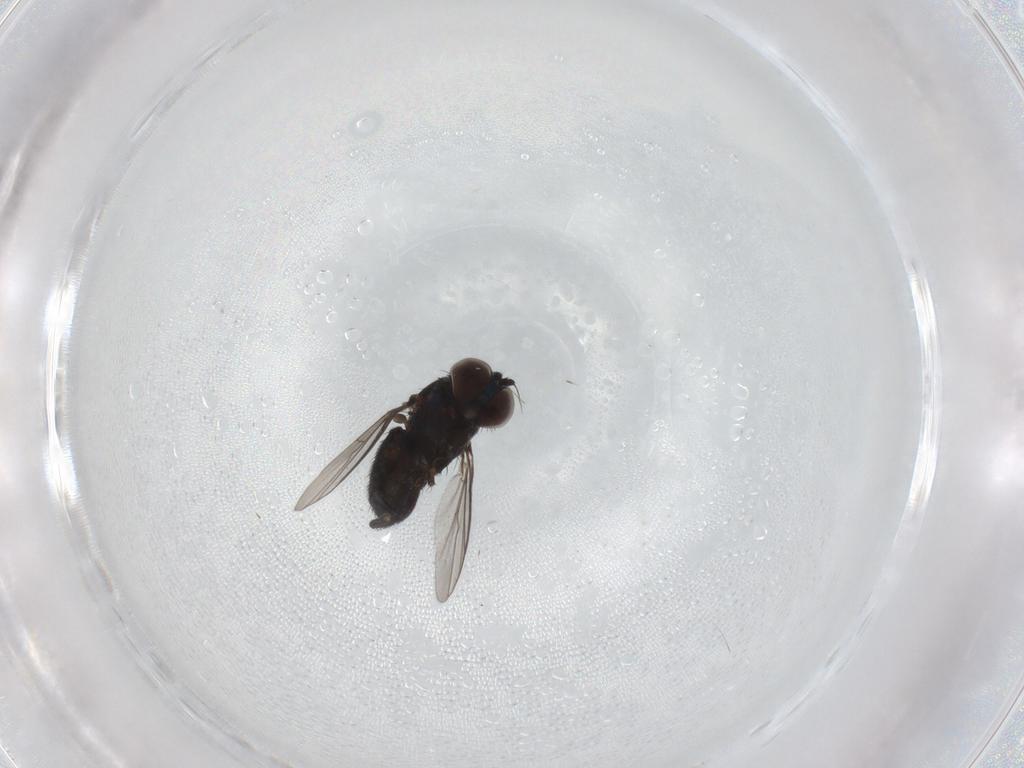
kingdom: Animalia
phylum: Arthropoda
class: Insecta
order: Diptera
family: Dolichopodidae
